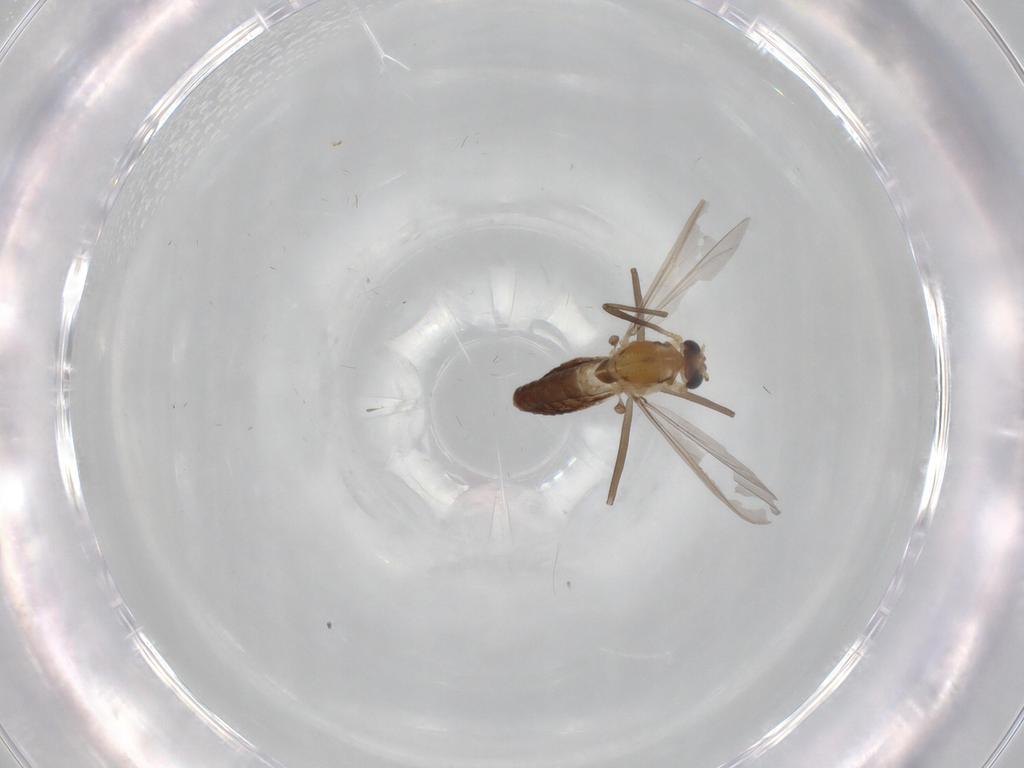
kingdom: Animalia
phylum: Arthropoda
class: Insecta
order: Diptera
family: Chironomidae
